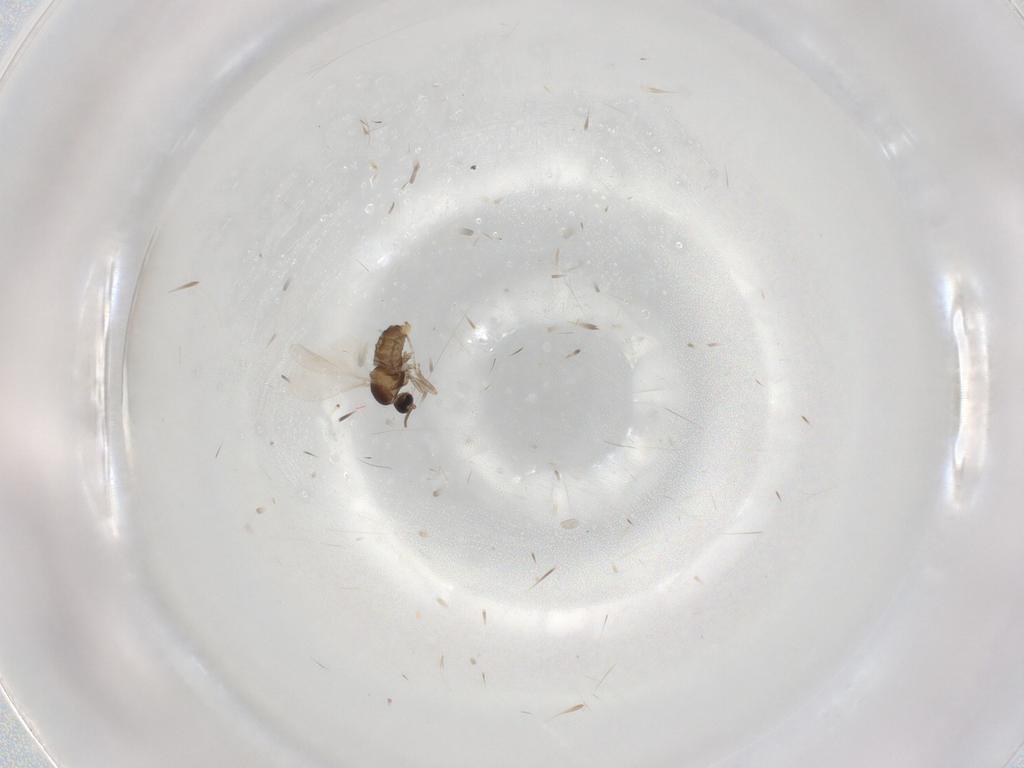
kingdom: Animalia
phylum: Arthropoda
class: Insecta
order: Diptera
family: Cecidomyiidae
